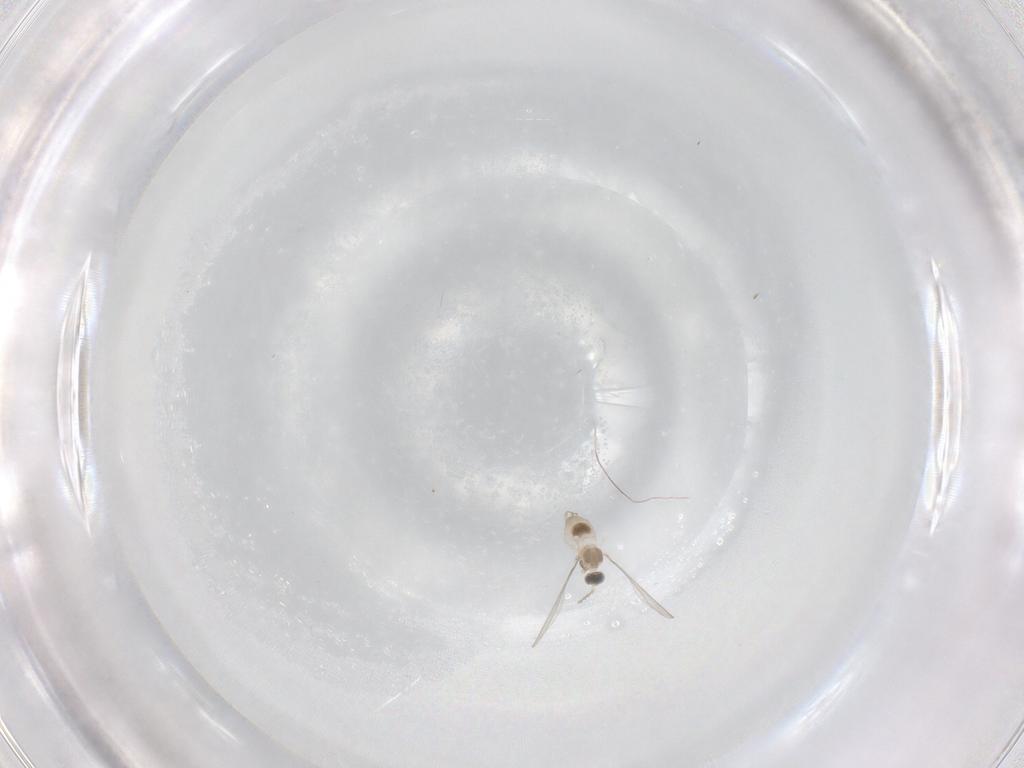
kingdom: Animalia
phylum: Arthropoda
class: Insecta
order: Diptera
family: Cecidomyiidae
